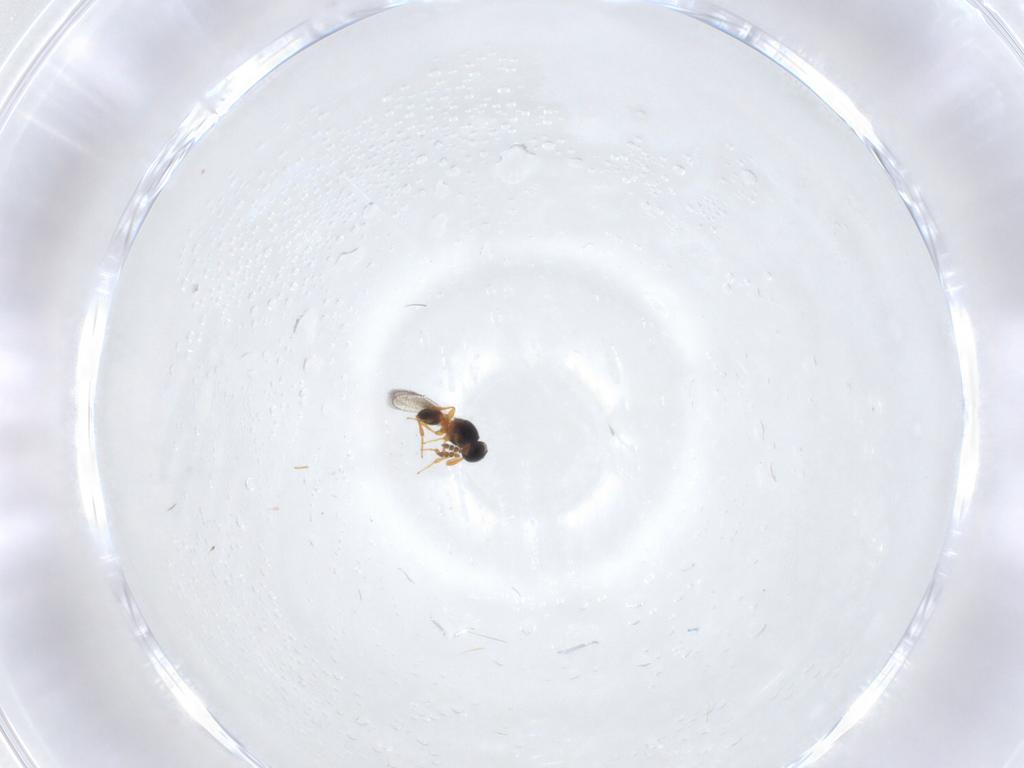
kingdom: Animalia
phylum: Arthropoda
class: Insecta
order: Hymenoptera
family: Platygastridae
